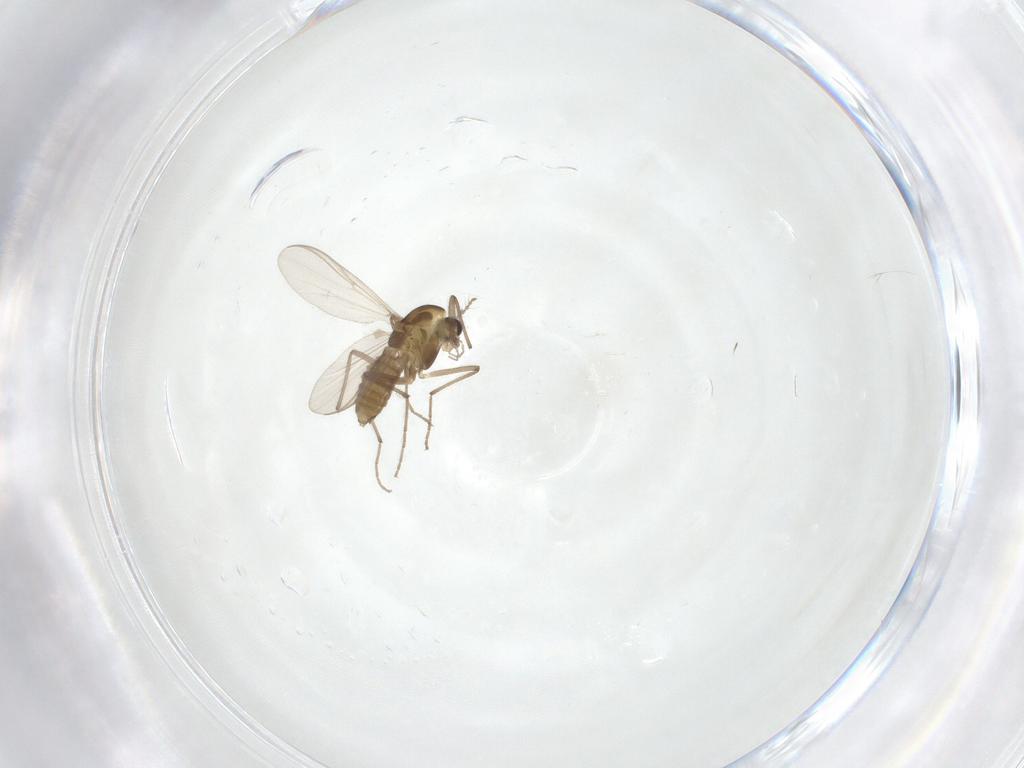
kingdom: Animalia
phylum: Arthropoda
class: Insecta
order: Diptera
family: Chironomidae
